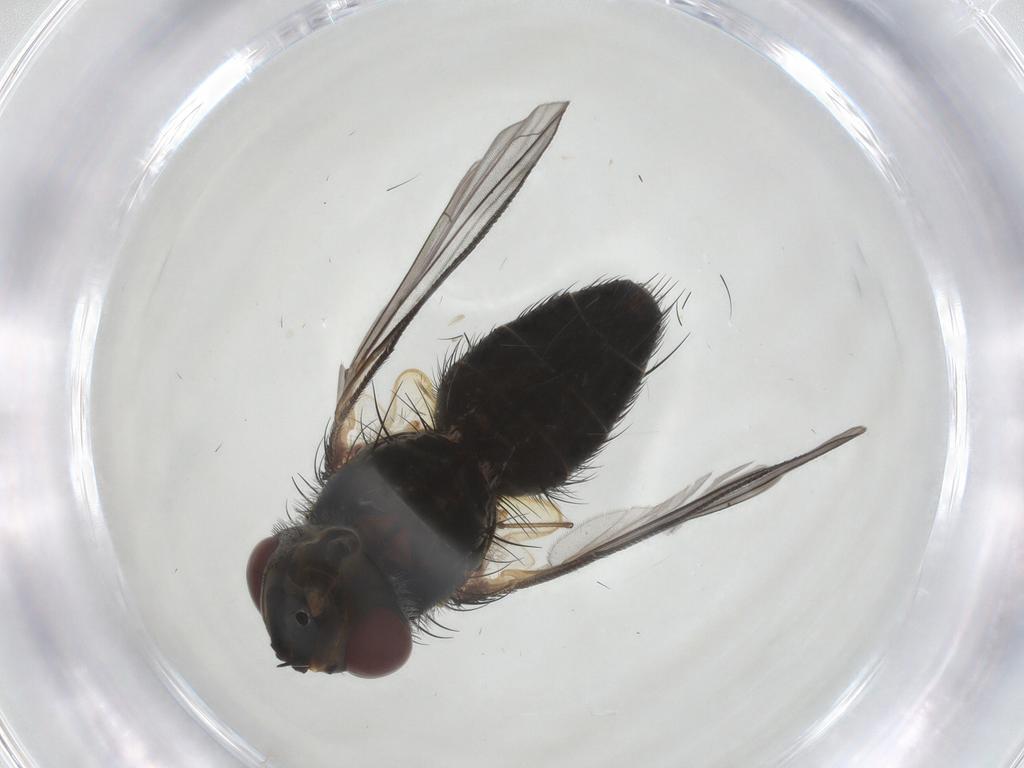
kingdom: Animalia
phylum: Arthropoda
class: Insecta
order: Diptera
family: Tachinidae
